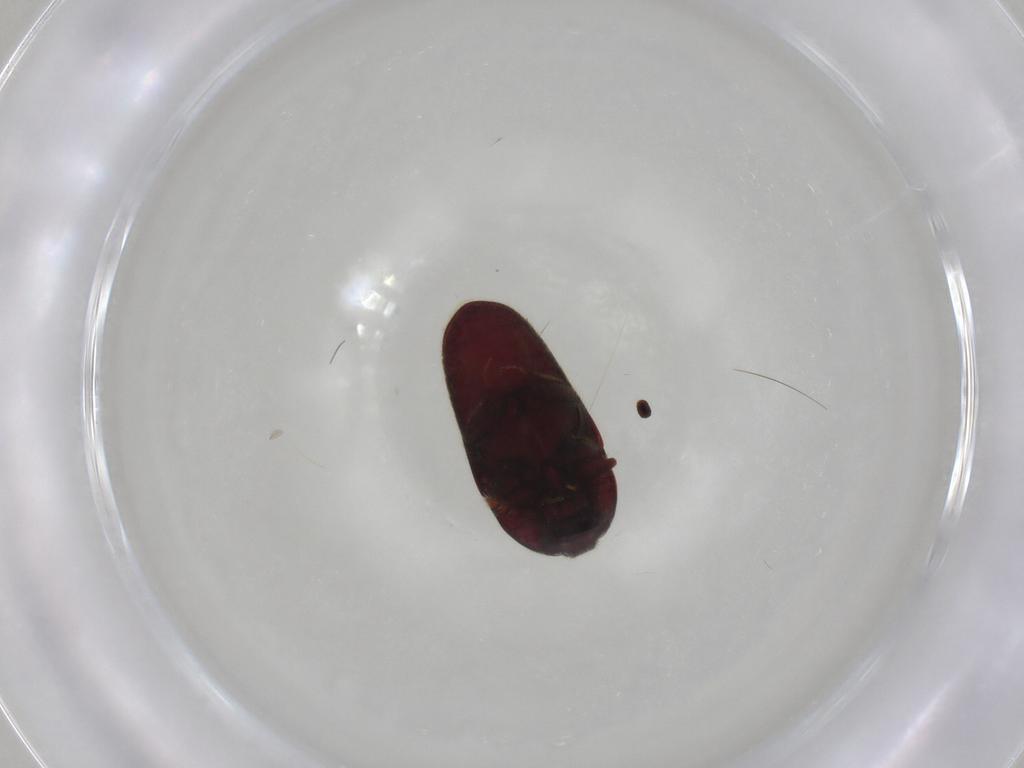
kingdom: Animalia
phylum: Arthropoda
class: Insecta
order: Coleoptera
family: Throscidae
